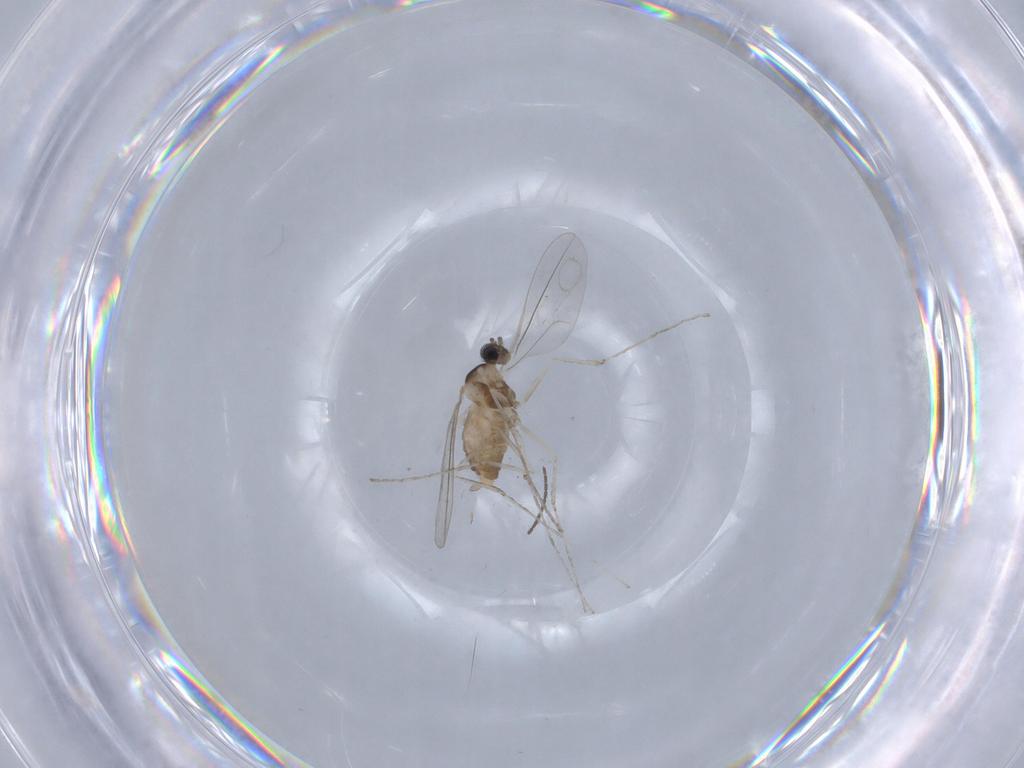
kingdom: Animalia
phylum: Arthropoda
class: Insecta
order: Diptera
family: Cecidomyiidae
